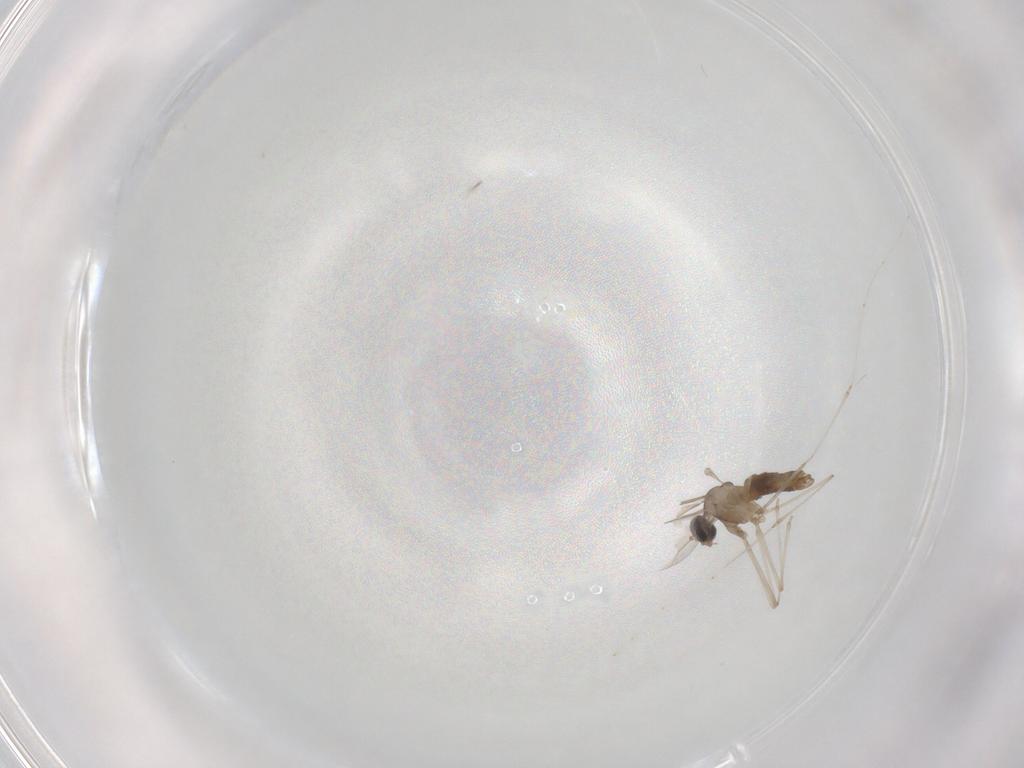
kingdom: Animalia
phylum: Arthropoda
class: Insecta
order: Diptera
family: Cecidomyiidae
